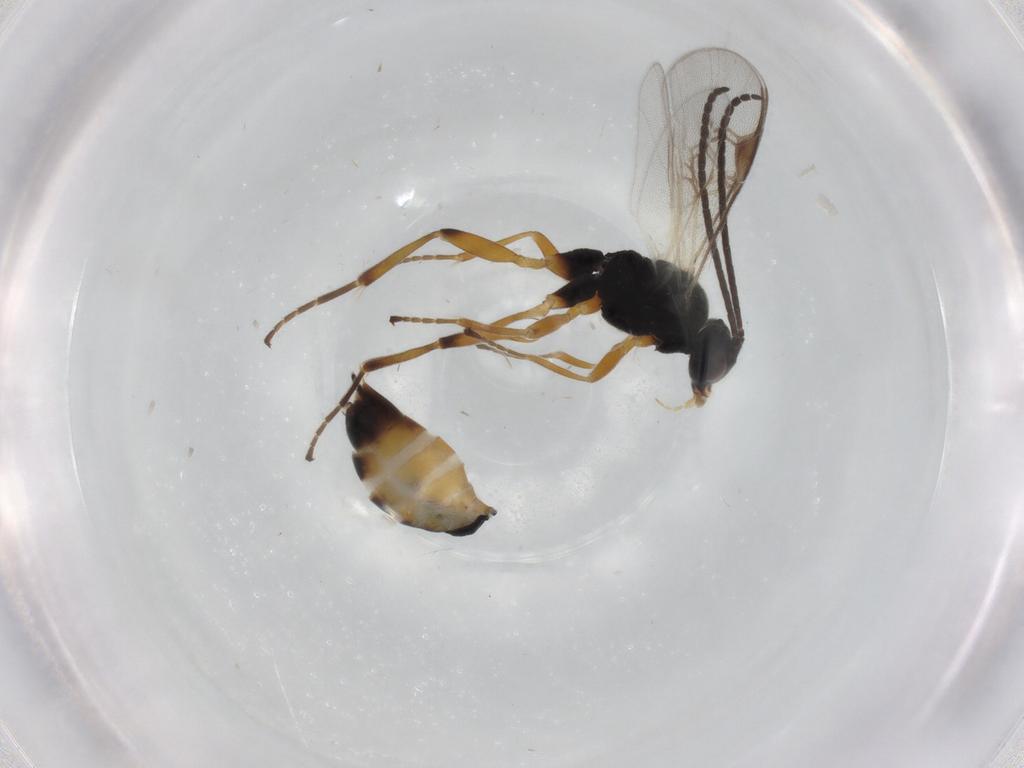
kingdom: Animalia
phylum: Arthropoda
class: Insecta
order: Hymenoptera
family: Braconidae
